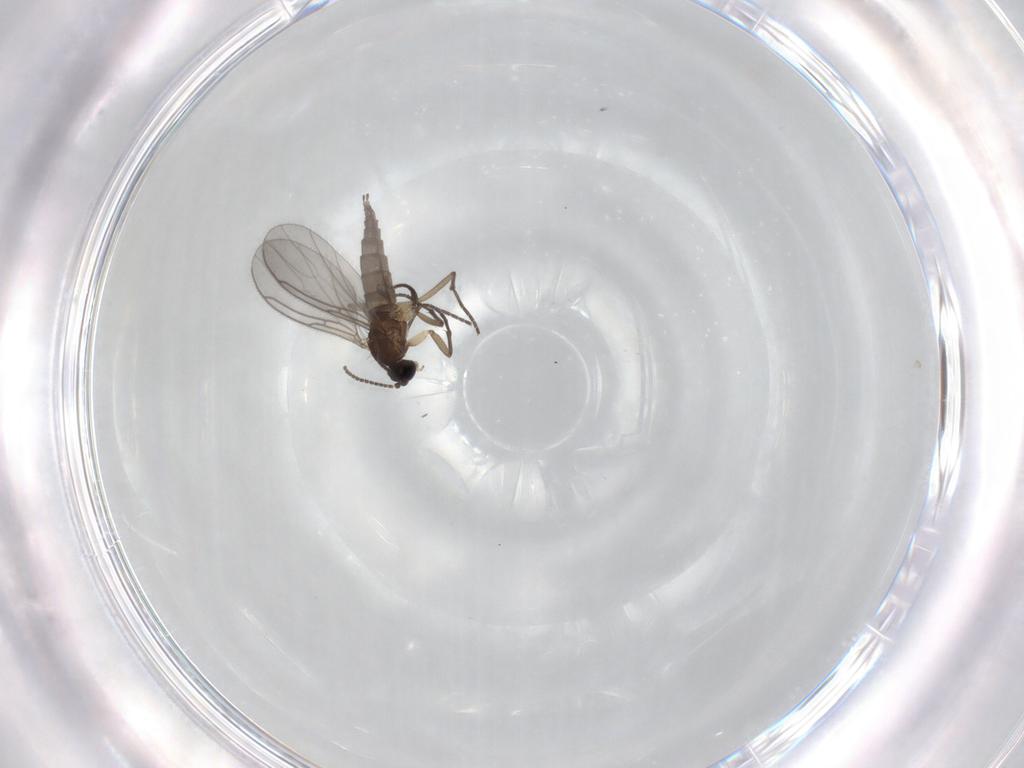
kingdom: Animalia
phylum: Arthropoda
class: Insecta
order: Diptera
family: Sciaridae
